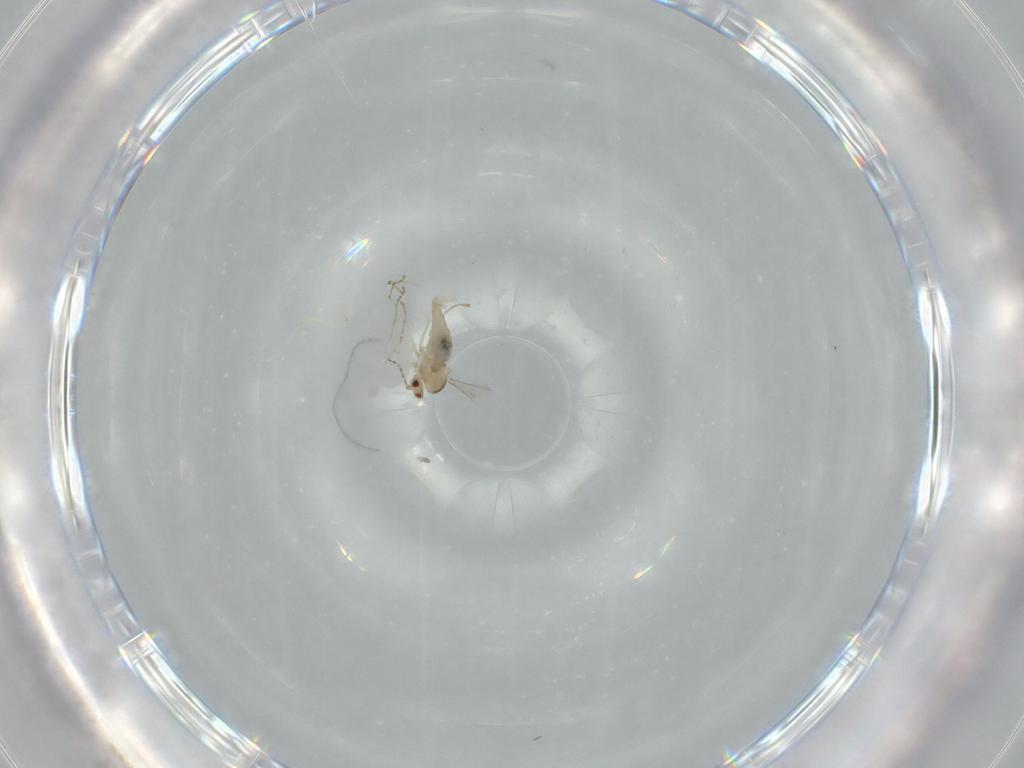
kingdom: Animalia
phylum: Arthropoda
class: Insecta
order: Diptera
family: Cecidomyiidae
